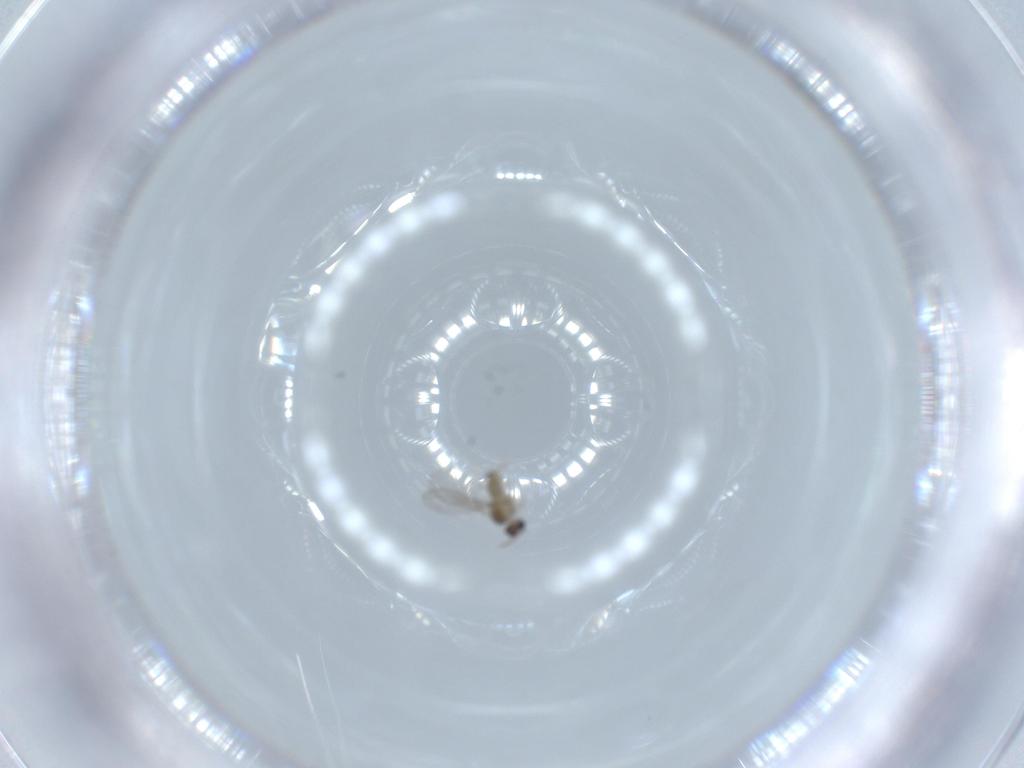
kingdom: Animalia
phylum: Arthropoda
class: Insecta
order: Diptera
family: Cecidomyiidae
